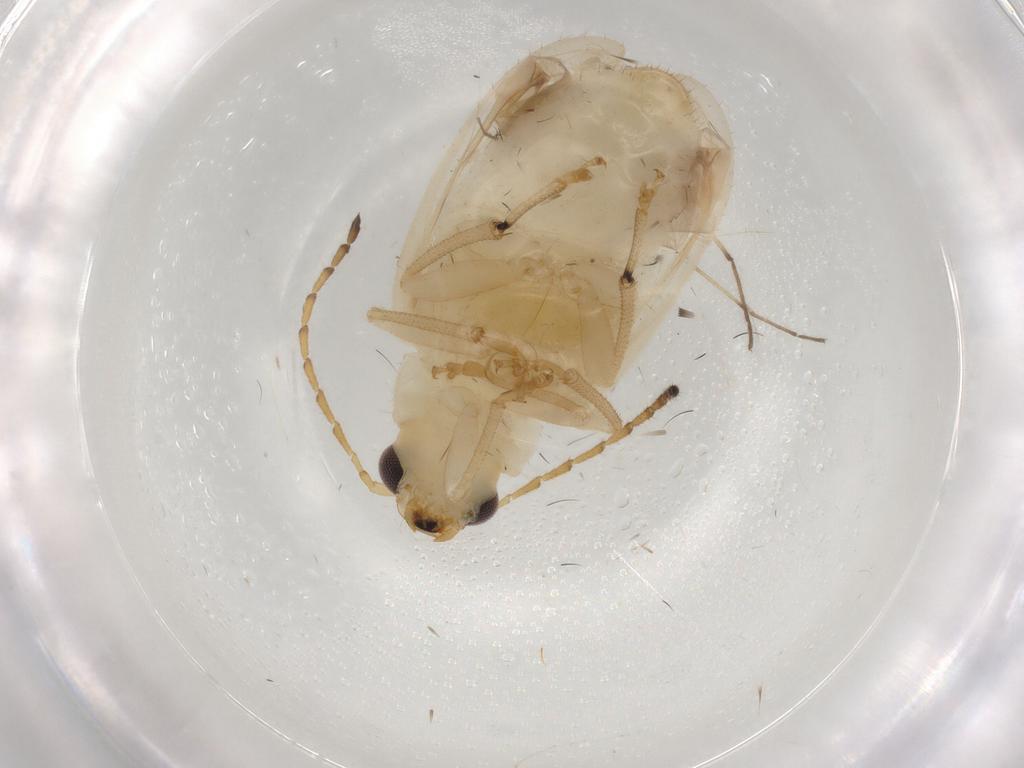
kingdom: Animalia
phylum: Arthropoda
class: Insecta
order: Coleoptera
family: Chrysomelidae
